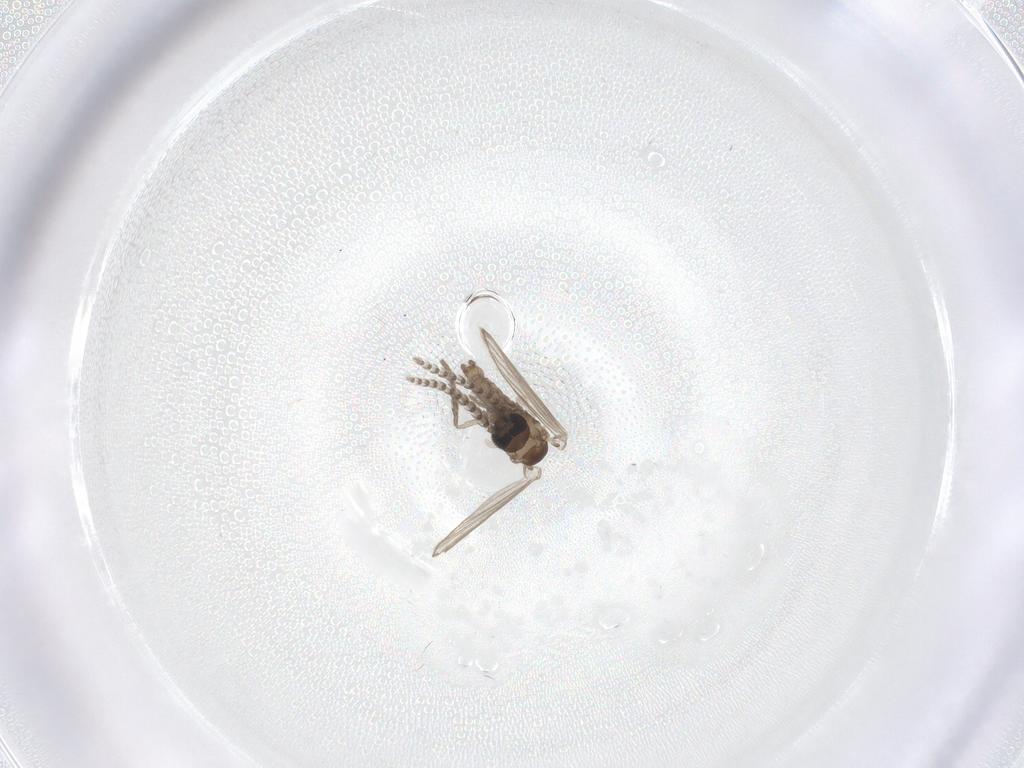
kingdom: Animalia
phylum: Arthropoda
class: Insecta
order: Diptera
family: Psychodidae
